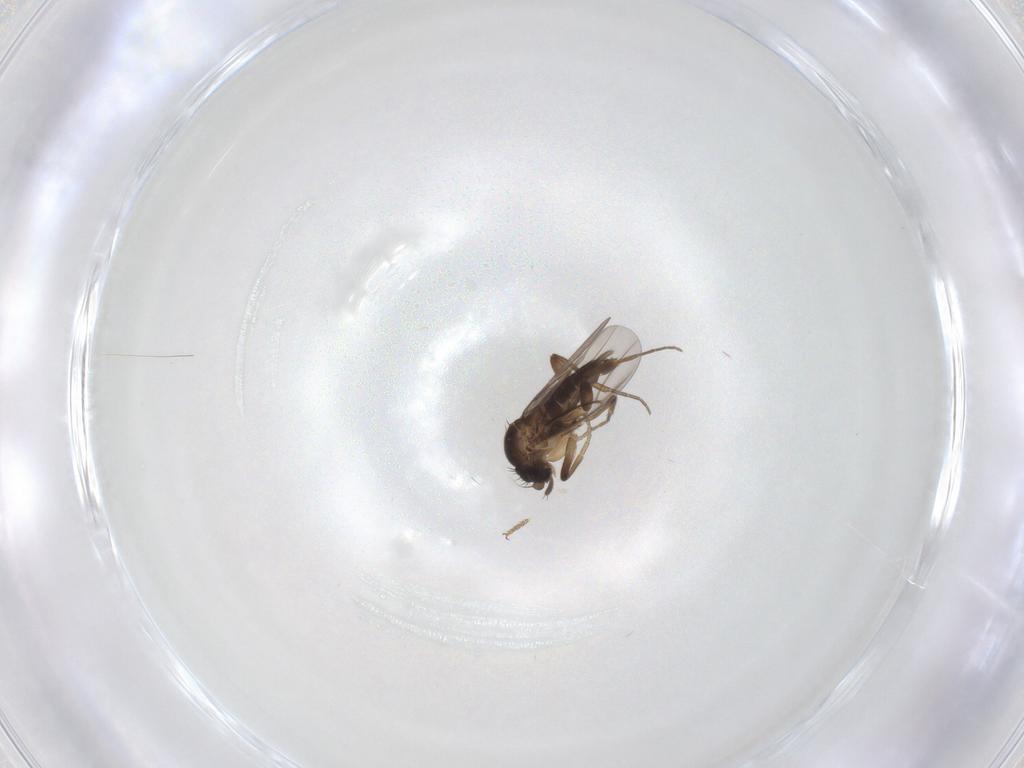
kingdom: Animalia
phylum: Arthropoda
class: Insecta
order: Diptera
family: Phoridae
